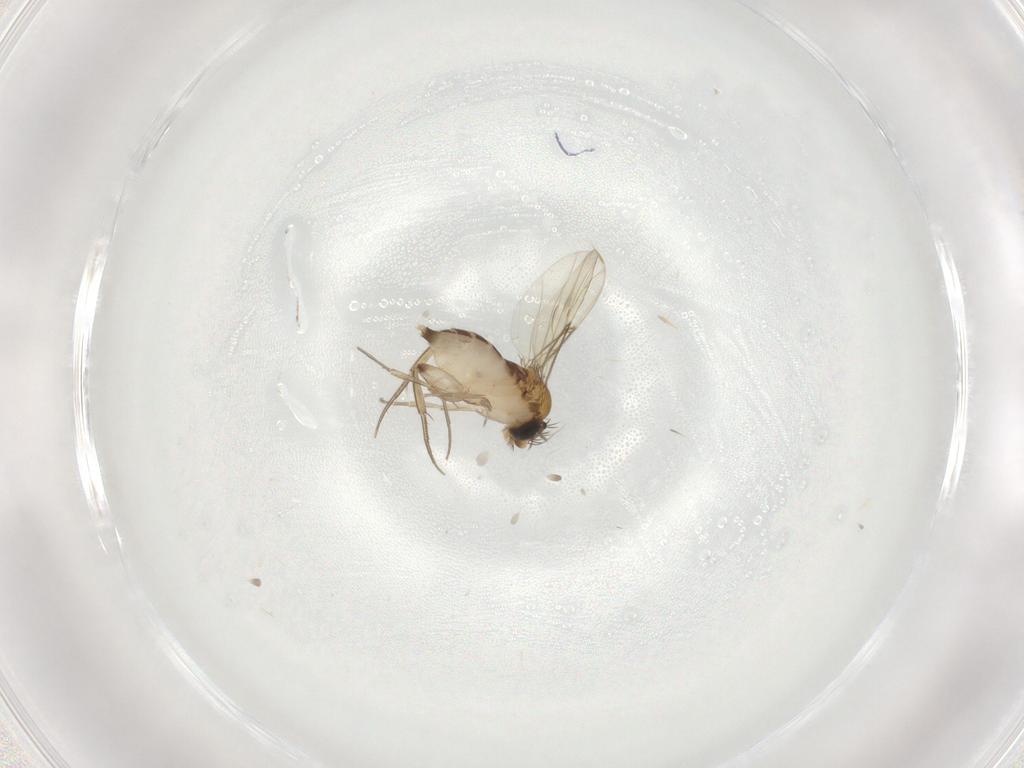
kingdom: Animalia
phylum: Arthropoda
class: Insecta
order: Diptera
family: Phoridae
